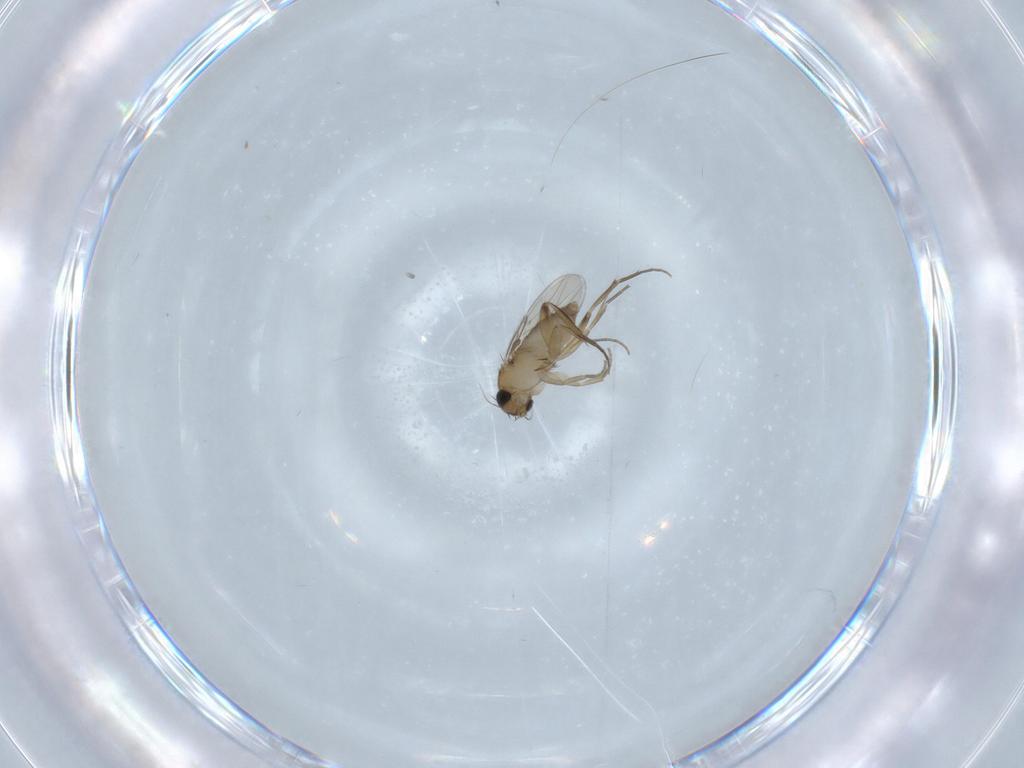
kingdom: Animalia
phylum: Arthropoda
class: Insecta
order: Diptera
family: Tabanidae
